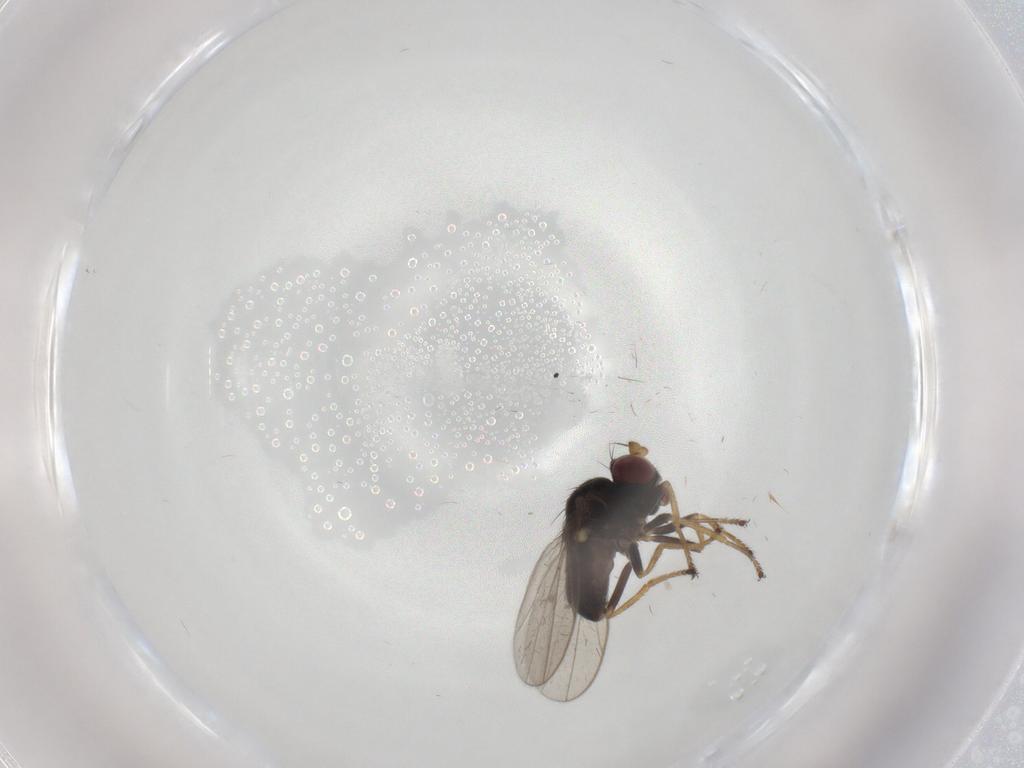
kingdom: Animalia
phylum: Arthropoda
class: Insecta
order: Diptera
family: Ephydridae
